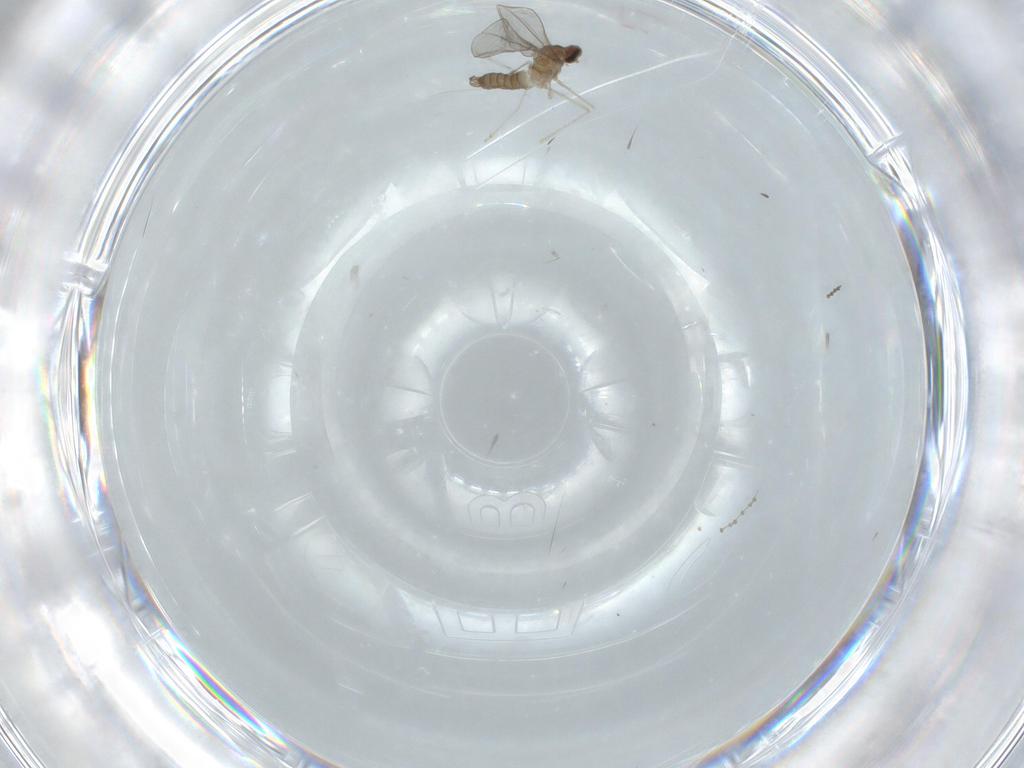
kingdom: Animalia
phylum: Arthropoda
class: Insecta
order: Diptera
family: Cecidomyiidae
